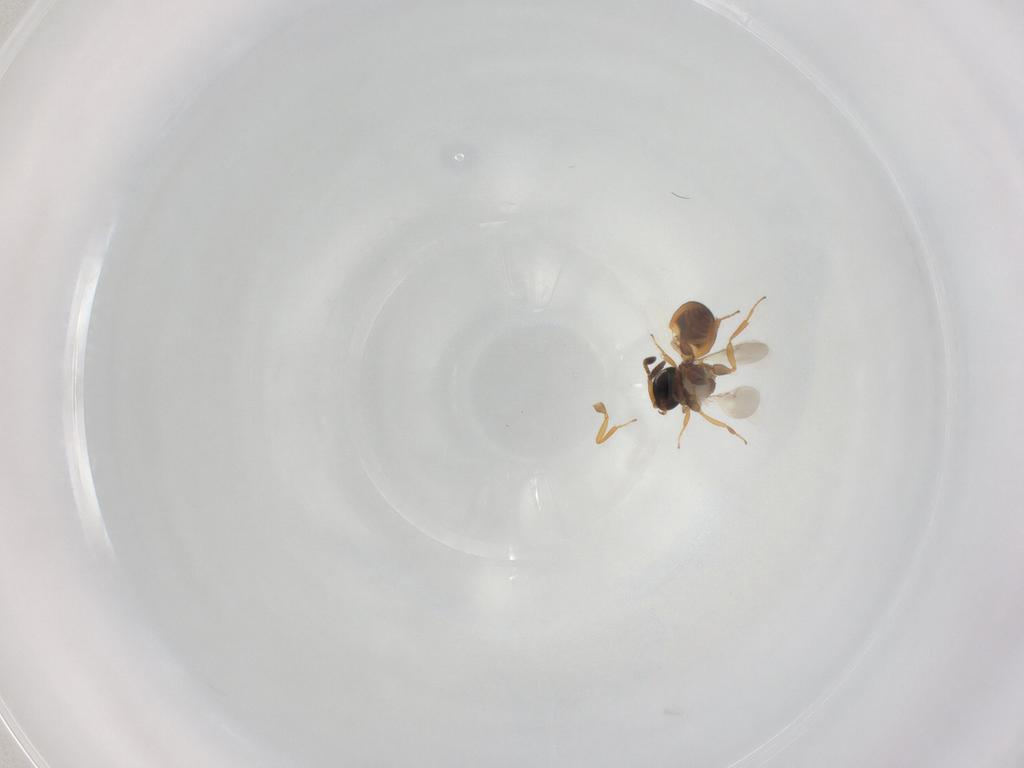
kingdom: Animalia
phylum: Arthropoda
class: Insecta
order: Hymenoptera
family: Scelionidae
